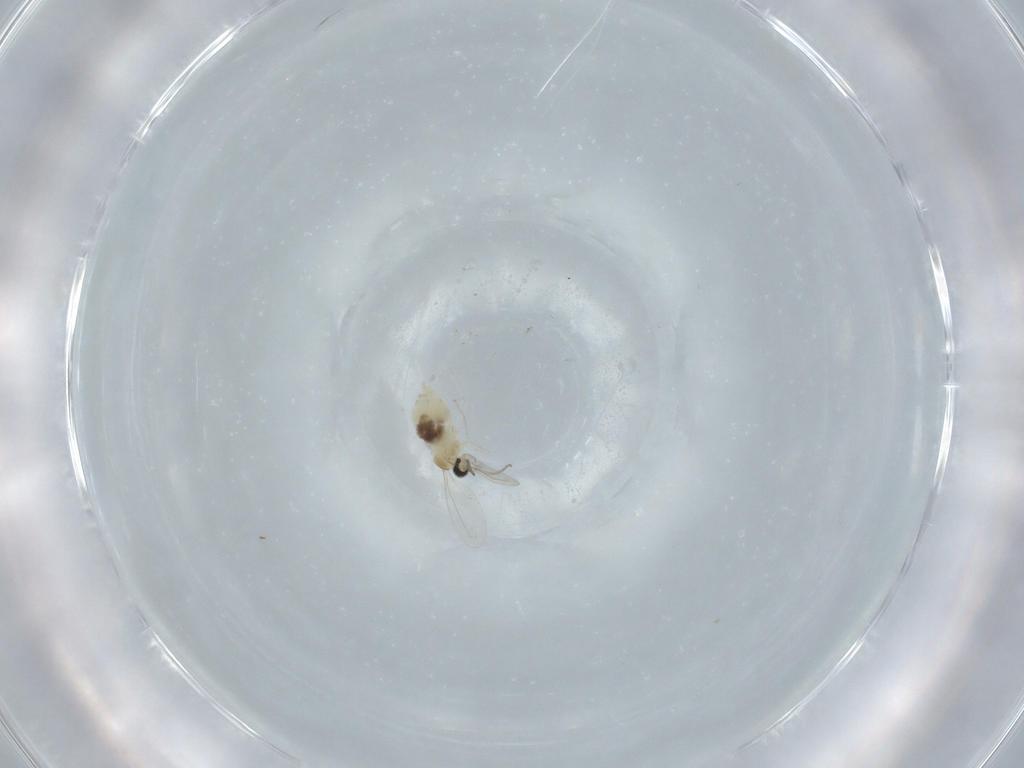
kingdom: Animalia
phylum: Arthropoda
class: Insecta
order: Diptera
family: Cecidomyiidae
